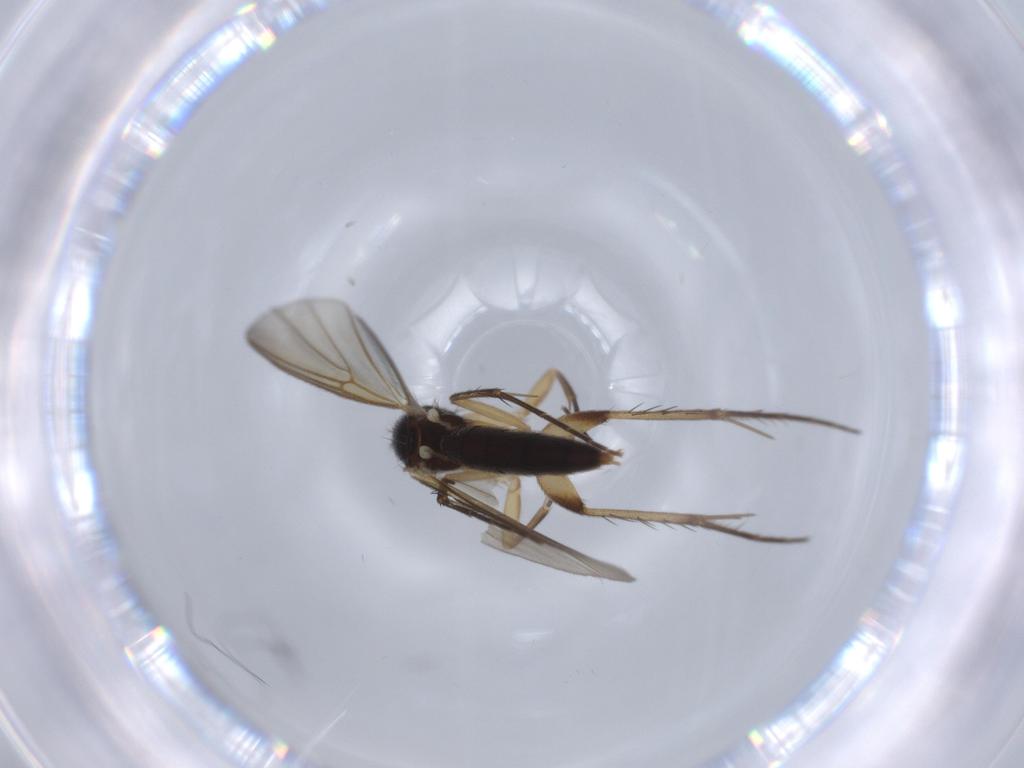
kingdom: Animalia
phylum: Arthropoda
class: Insecta
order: Diptera
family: Mycetophilidae
